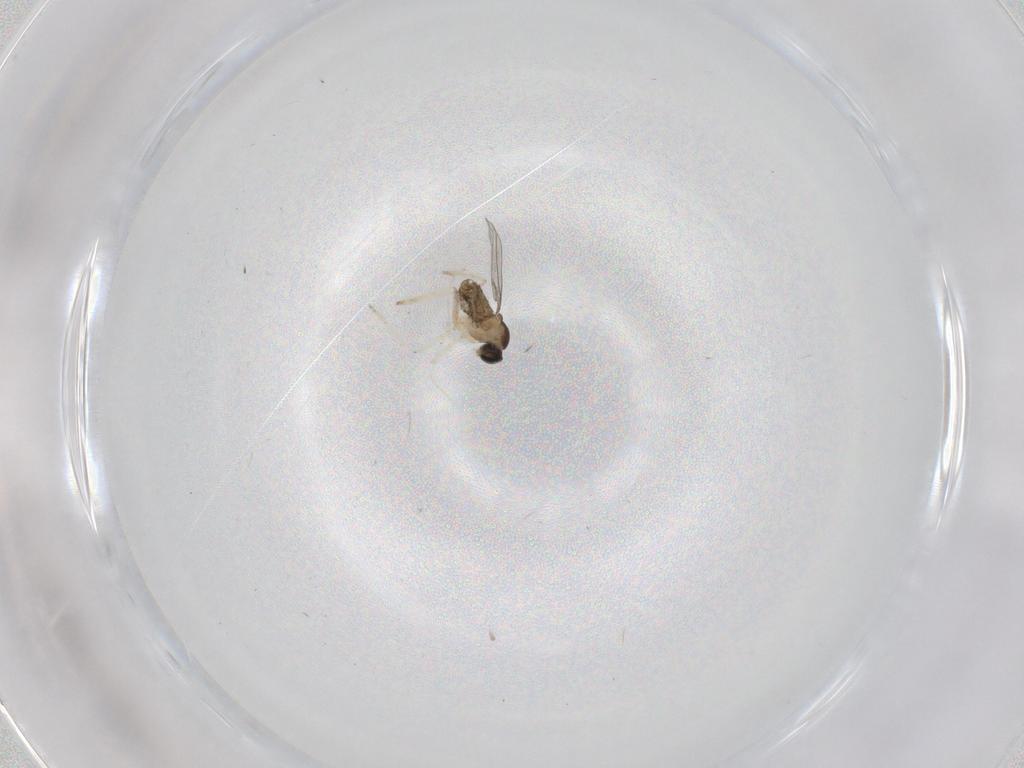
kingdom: Animalia
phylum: Arthropoda
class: Insecta
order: Diptera
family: Cecidomyiidae
